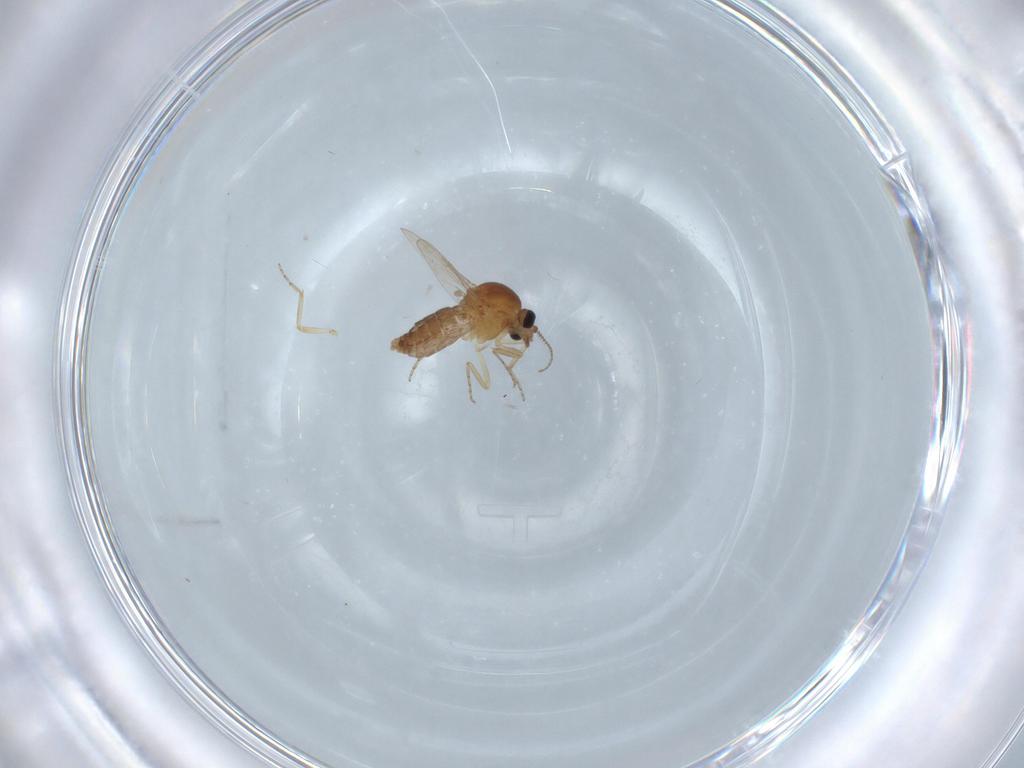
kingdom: Animalia
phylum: Arthropoda
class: Insecta
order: Diptera
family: Ceratopogonidae
